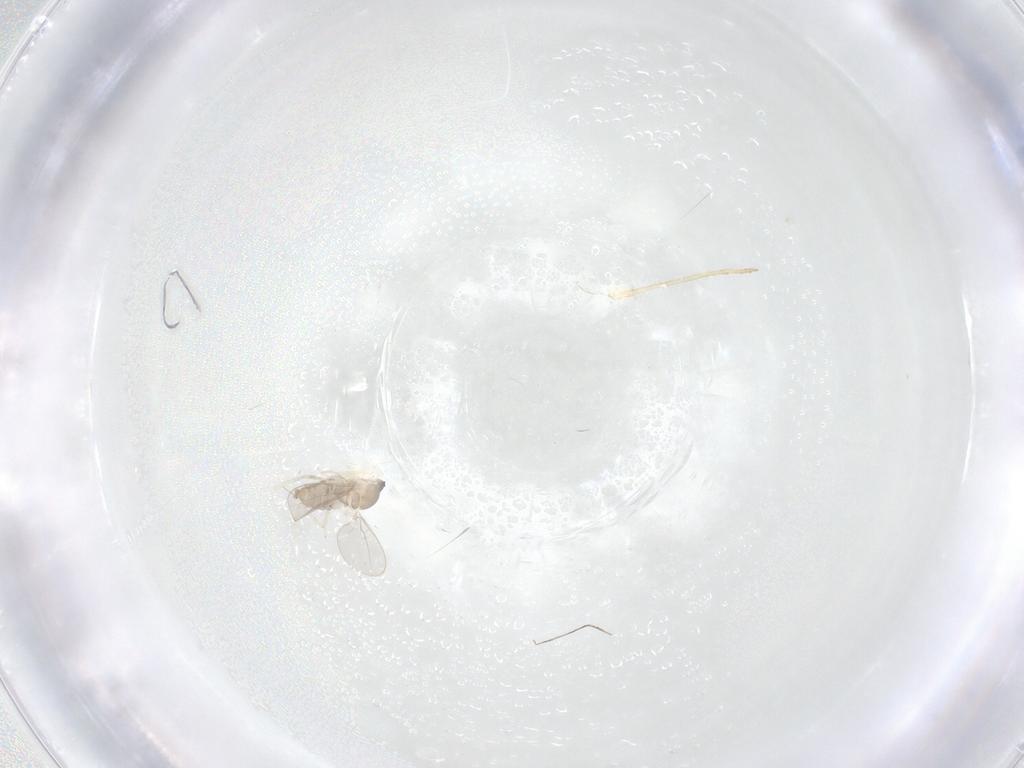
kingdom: Animalia
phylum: Arthropoda
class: Insecta
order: Diptera
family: Cecidomyiidae
